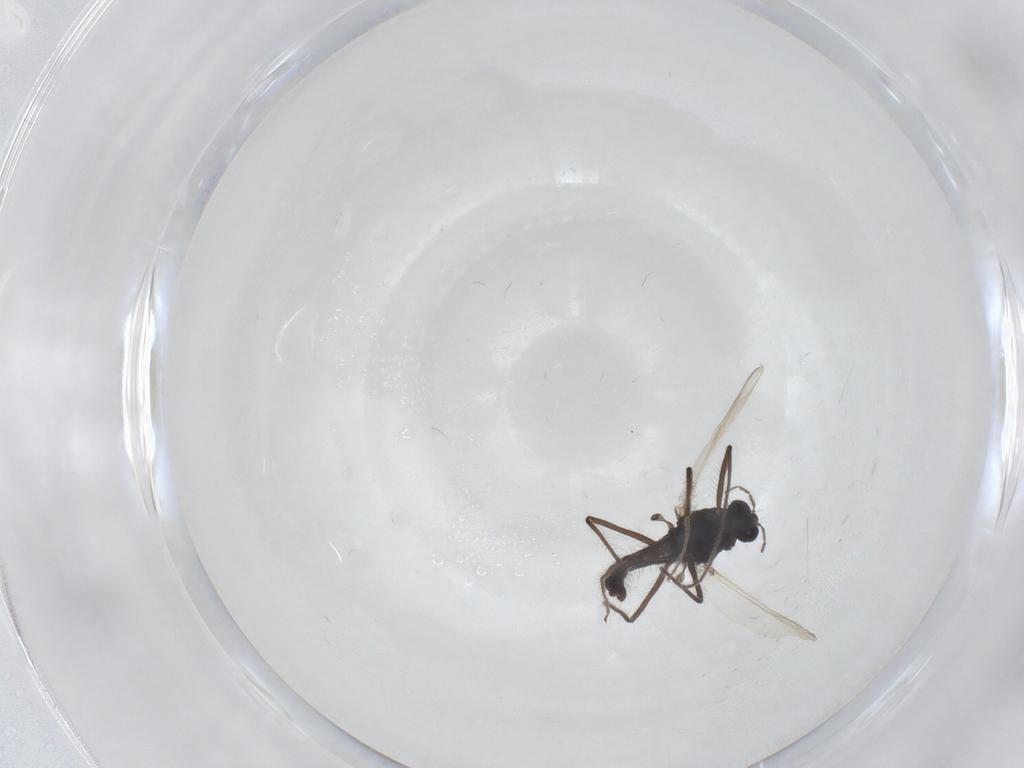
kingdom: Animalia
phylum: Arthropoda
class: Insecta
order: Diptera
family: Chironomidae
